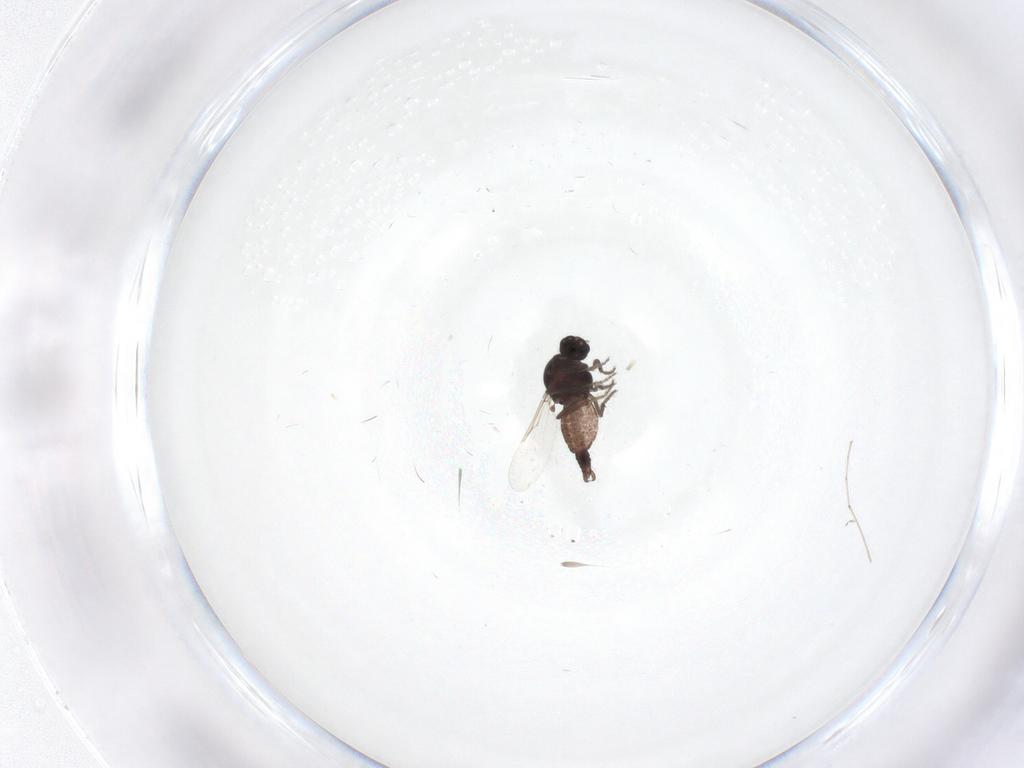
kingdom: Animalia
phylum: Arthropoda
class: Insecta
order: Diptera
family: Ceratopogonidae
